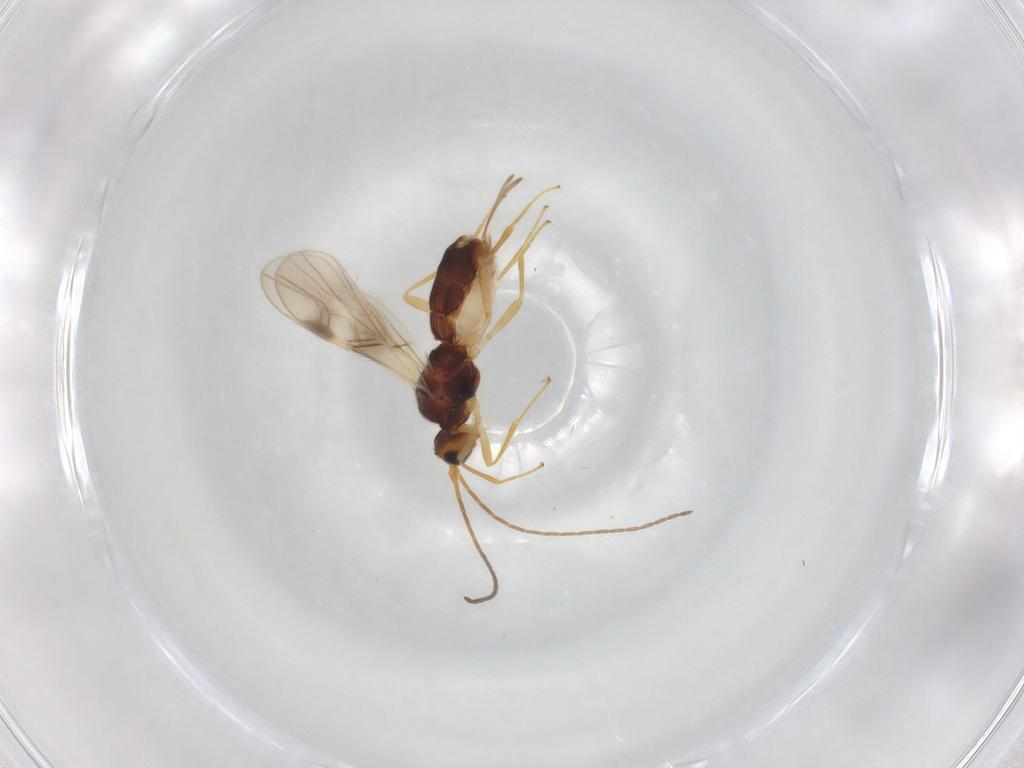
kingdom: Animalia
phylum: Arthropoda
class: Insecta
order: Hymenoptera
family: Braconidae
